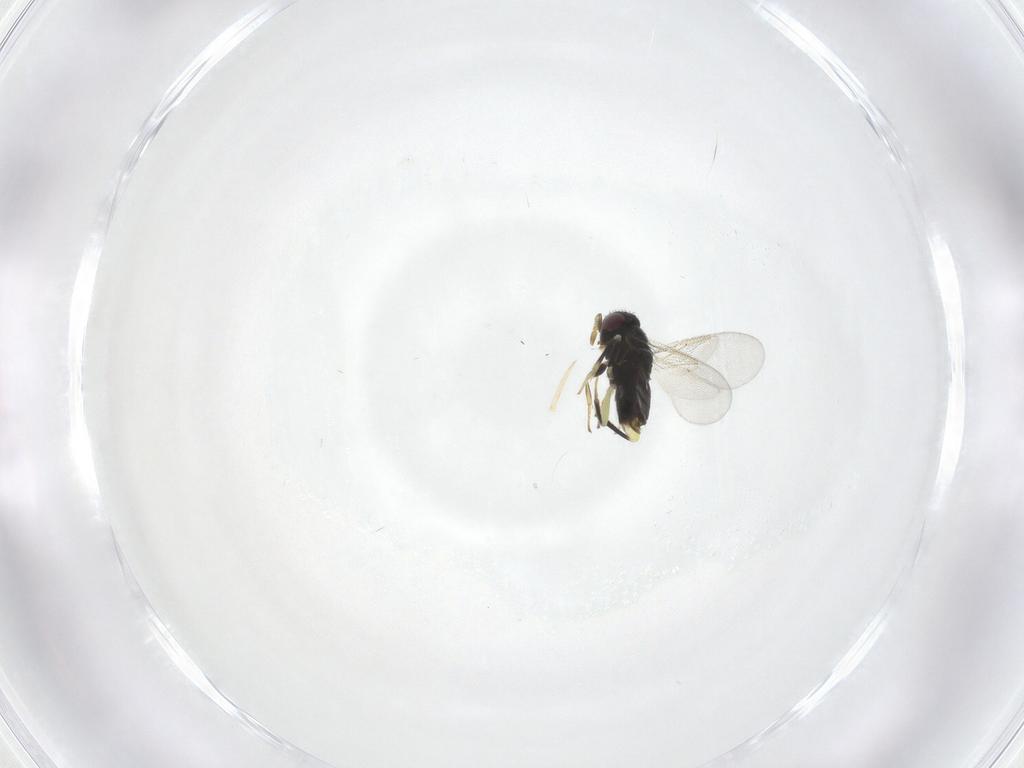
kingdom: Animalia
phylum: Arthropoda
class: Insecta
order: Hymenoptera
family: Aphelinidae
